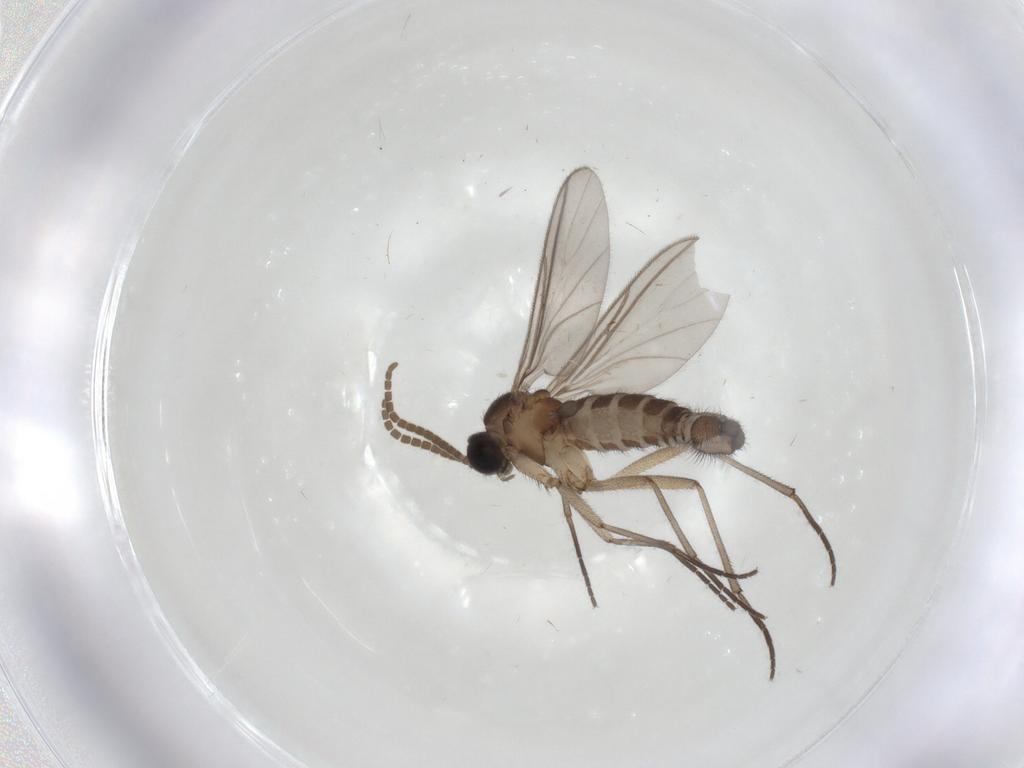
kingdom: Animalia
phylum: Arthropoda
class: Insecta
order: Diptera
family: Sciaridae
